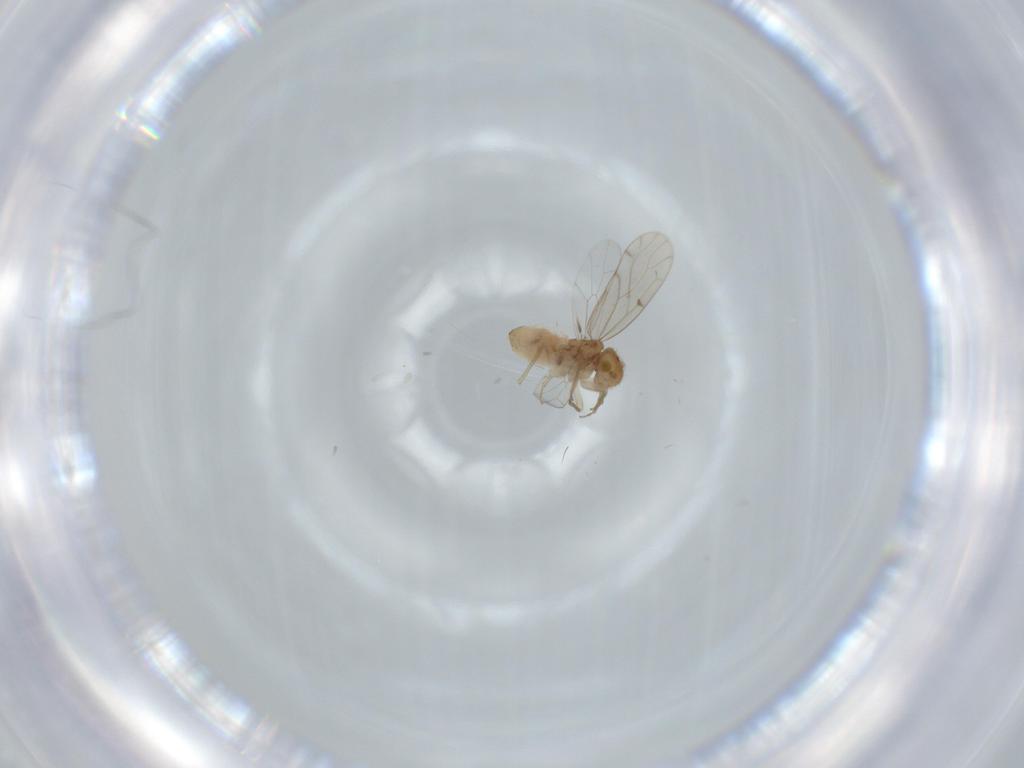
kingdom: Animalia
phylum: Arthropoda
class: Insecta
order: Psocodea
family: Ectopsocidae
